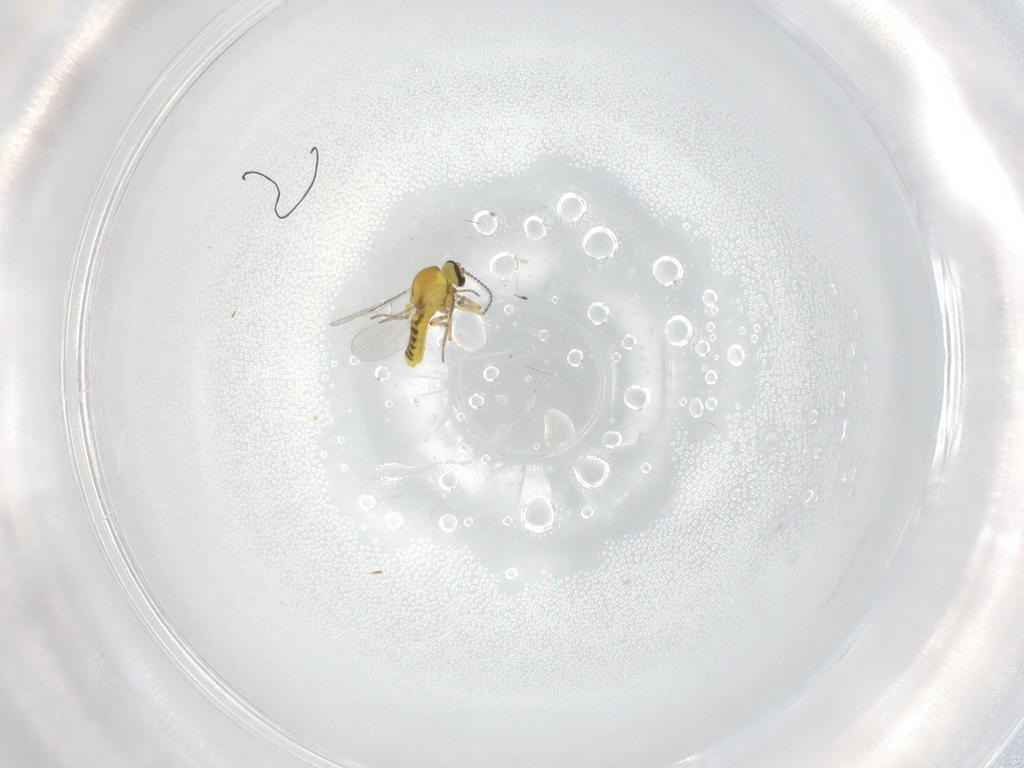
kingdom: Animalia
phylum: Arthropoda
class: Insecta
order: Diptera
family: Ceratopogonidae
